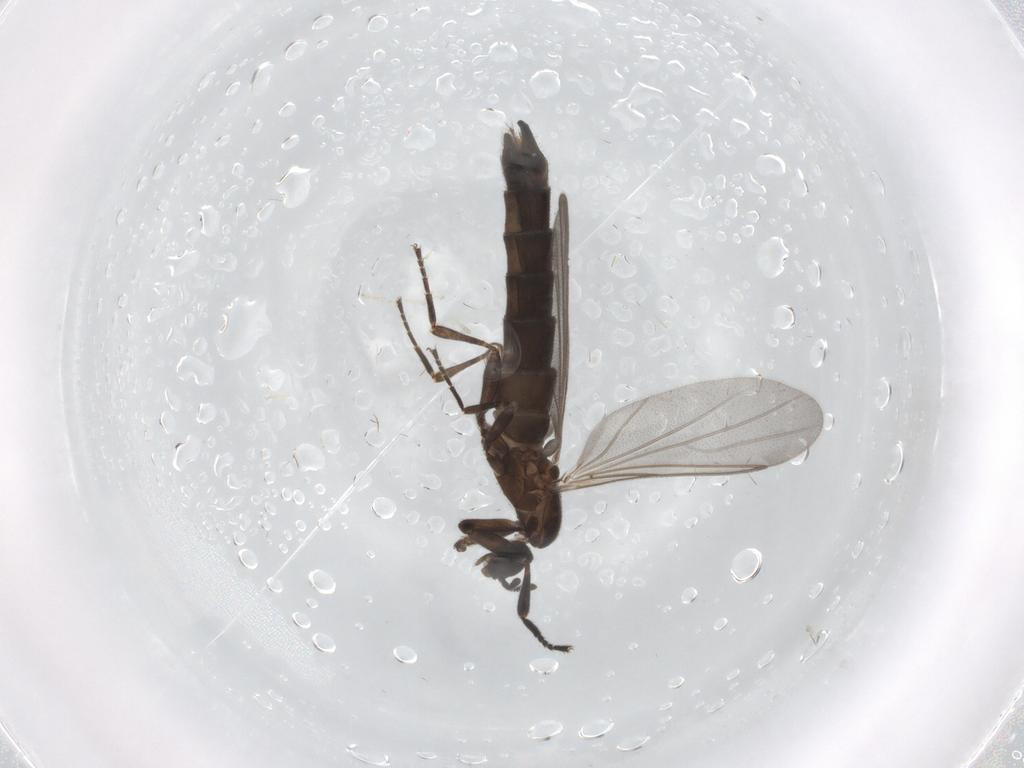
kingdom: Animalia
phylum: Arthropoda
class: Insecta
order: Diptera
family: Scatopsidae
